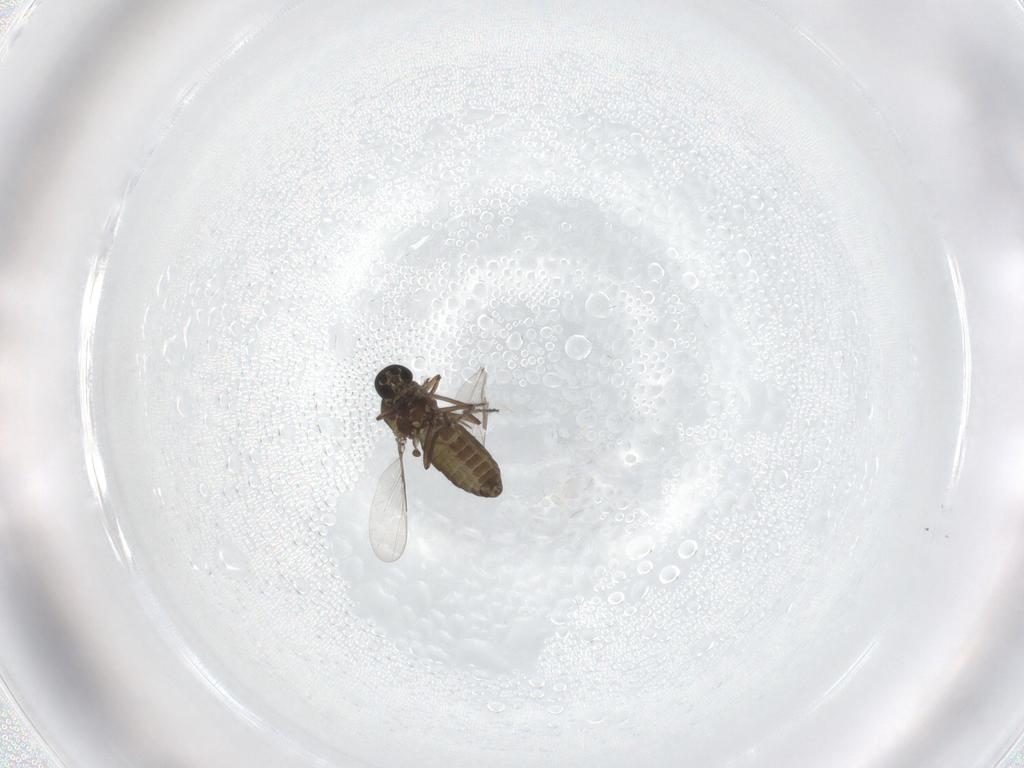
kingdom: Animalia
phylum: Arthropoda
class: Insecta
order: Diptera
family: Ceratopogonidae
